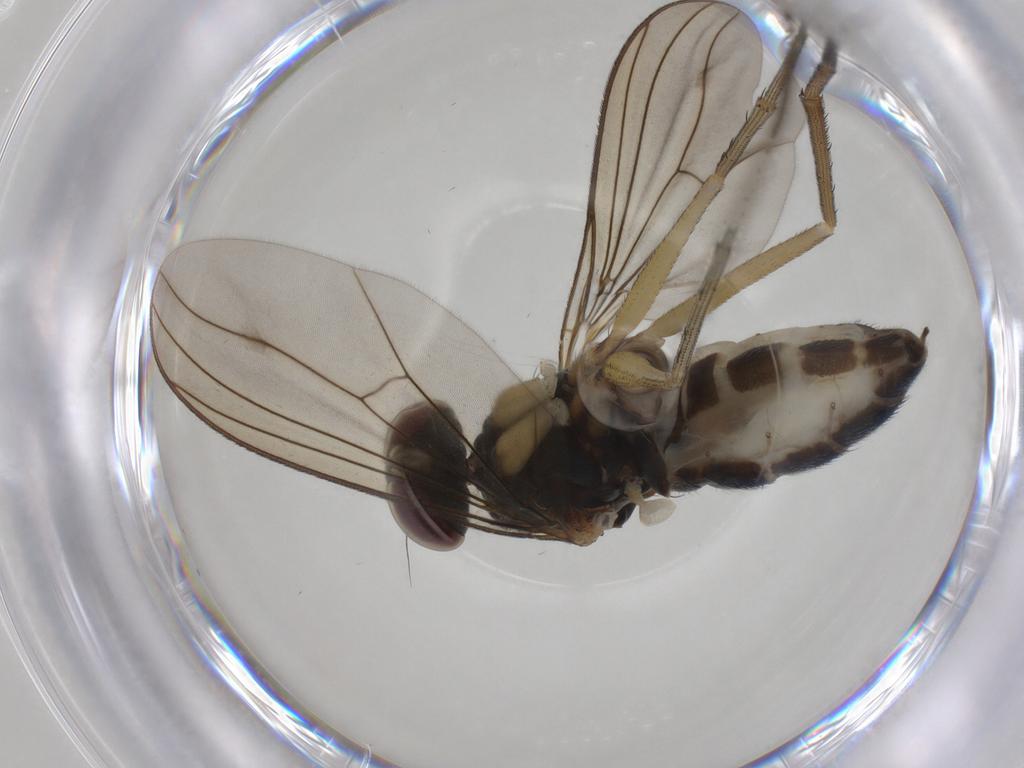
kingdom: Animalia
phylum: Arthropoda
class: Insecta
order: Diptera
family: Dolichopodidae
